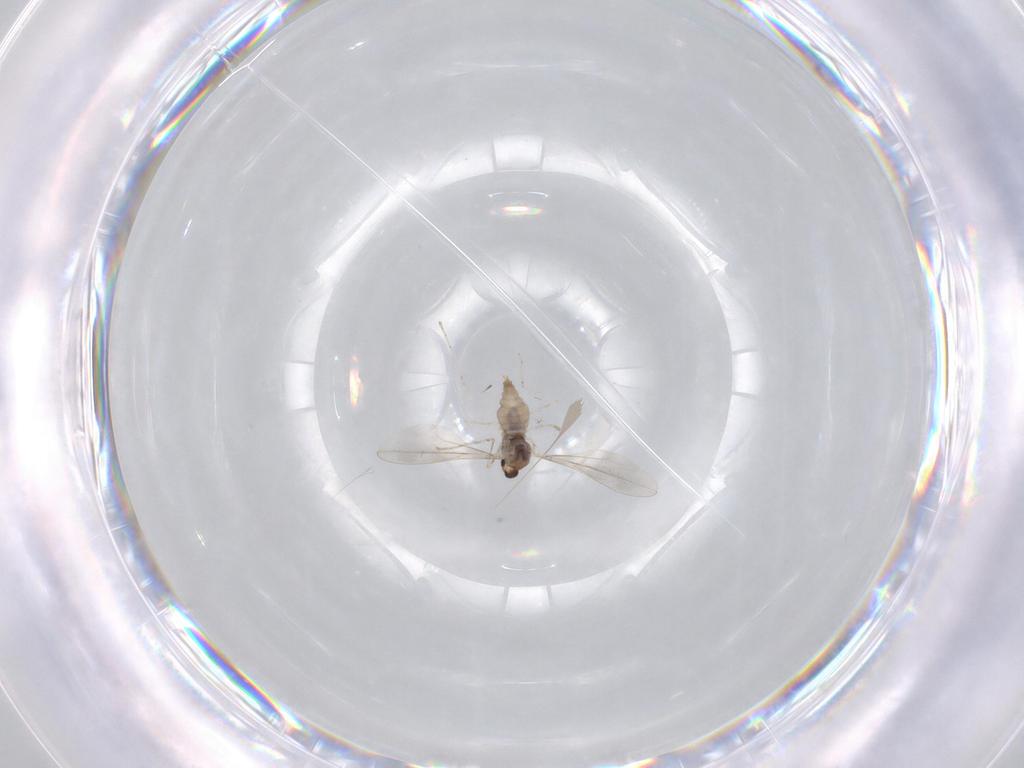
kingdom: Animalia
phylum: Arthropoda
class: Insecta
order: Diptera
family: Cecidomyiidae
